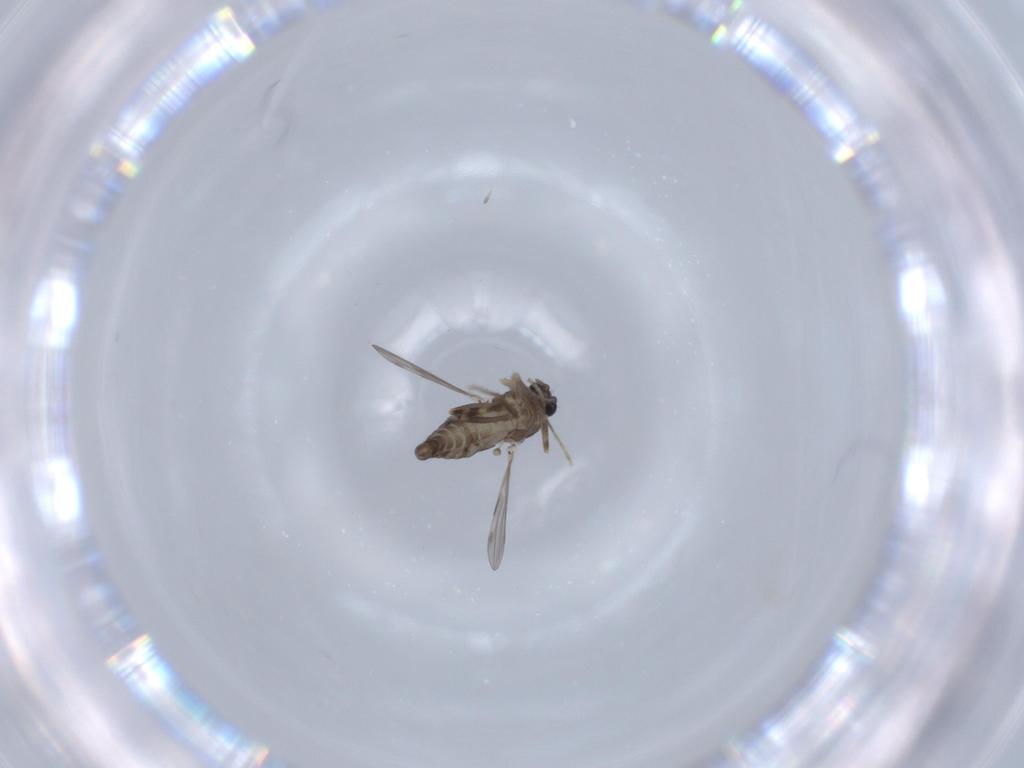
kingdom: Animalia
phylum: Arthropoda
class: Insecta
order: Diptera
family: Ceratopogonidae
